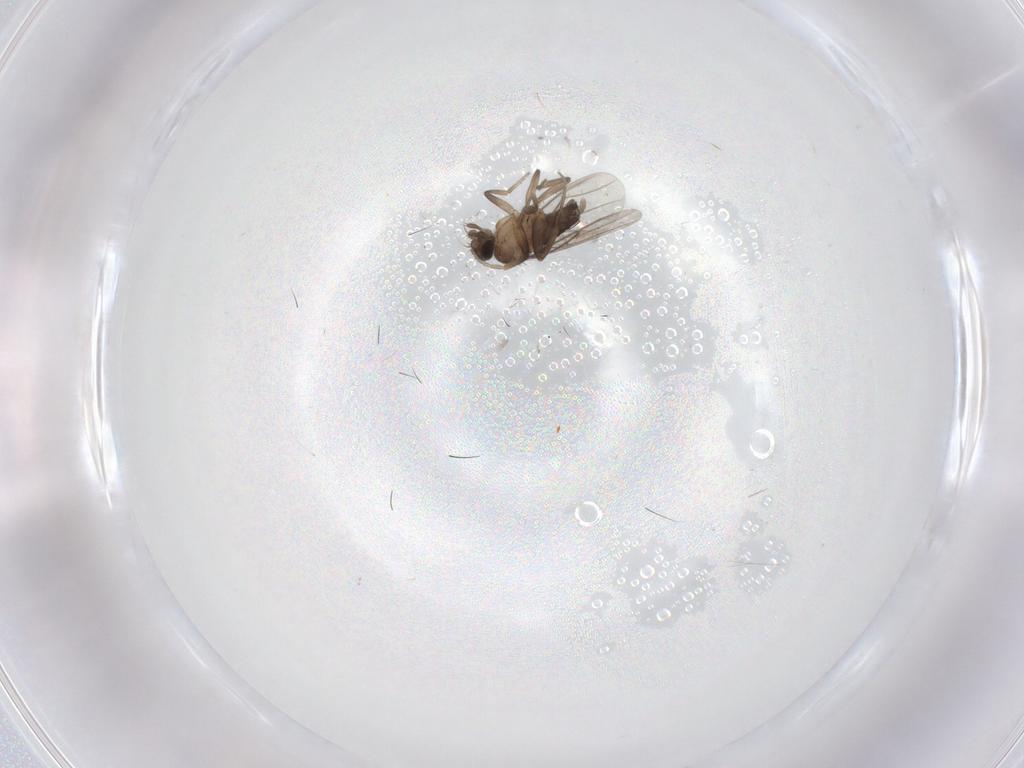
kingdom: Animalia
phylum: Arthropoda
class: Insecta
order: Diptera
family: Phoridae
